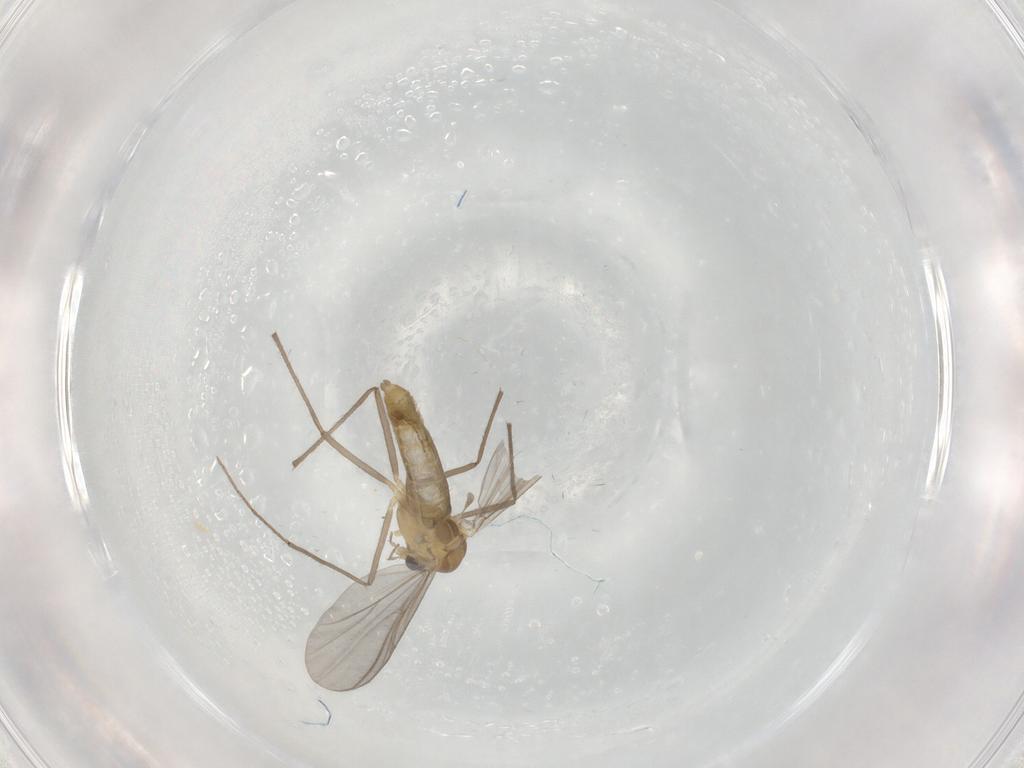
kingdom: Animalia
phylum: Arthropoda
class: Insecta
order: Diptera
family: Chironomidae
